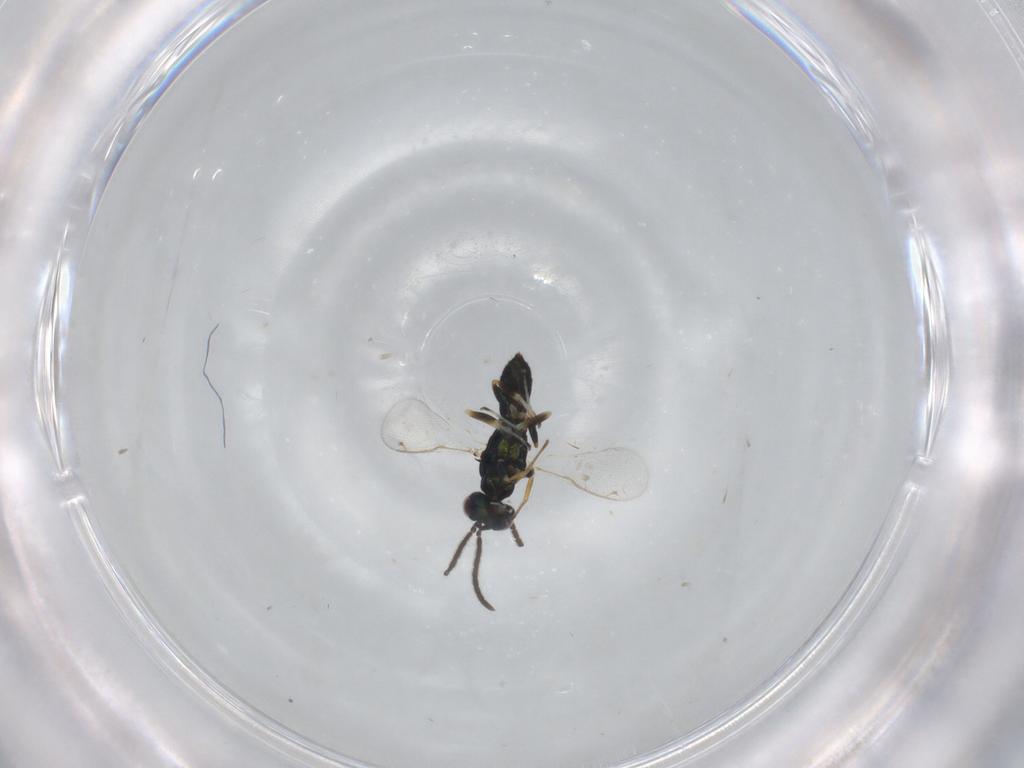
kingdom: Animalia
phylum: Arthropoda
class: Insecta
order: Hymenoptera
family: Eupelmidae
